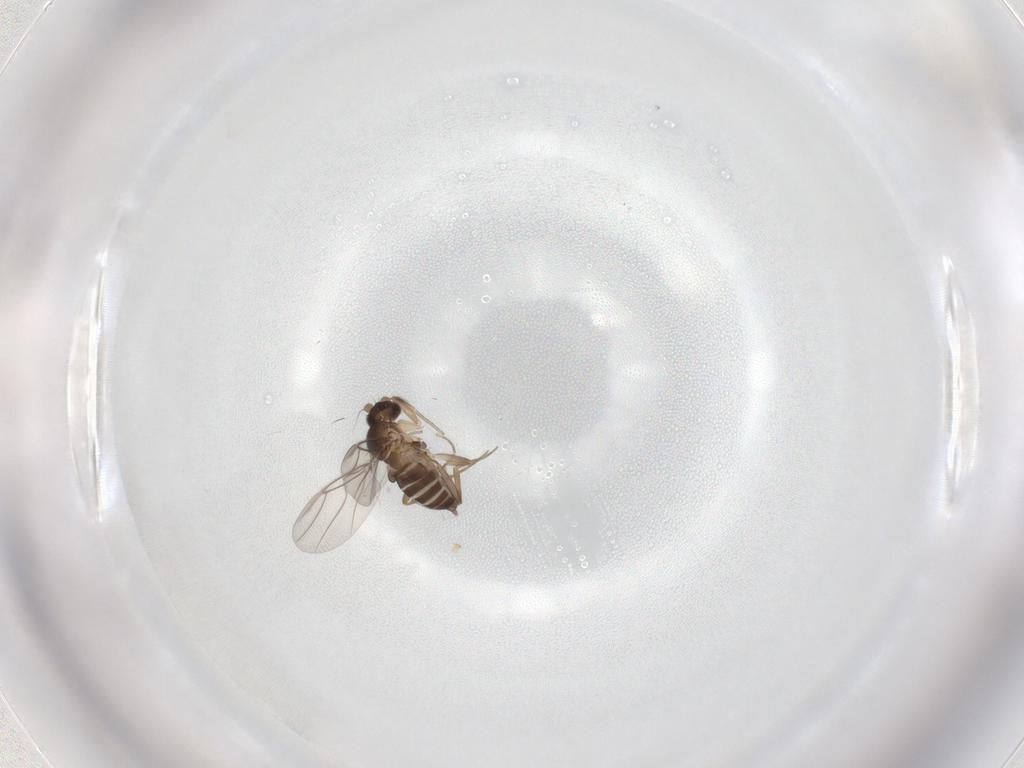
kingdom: Animalia
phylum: Arthropoda
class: Insecta
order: Diptera
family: Phoridae
